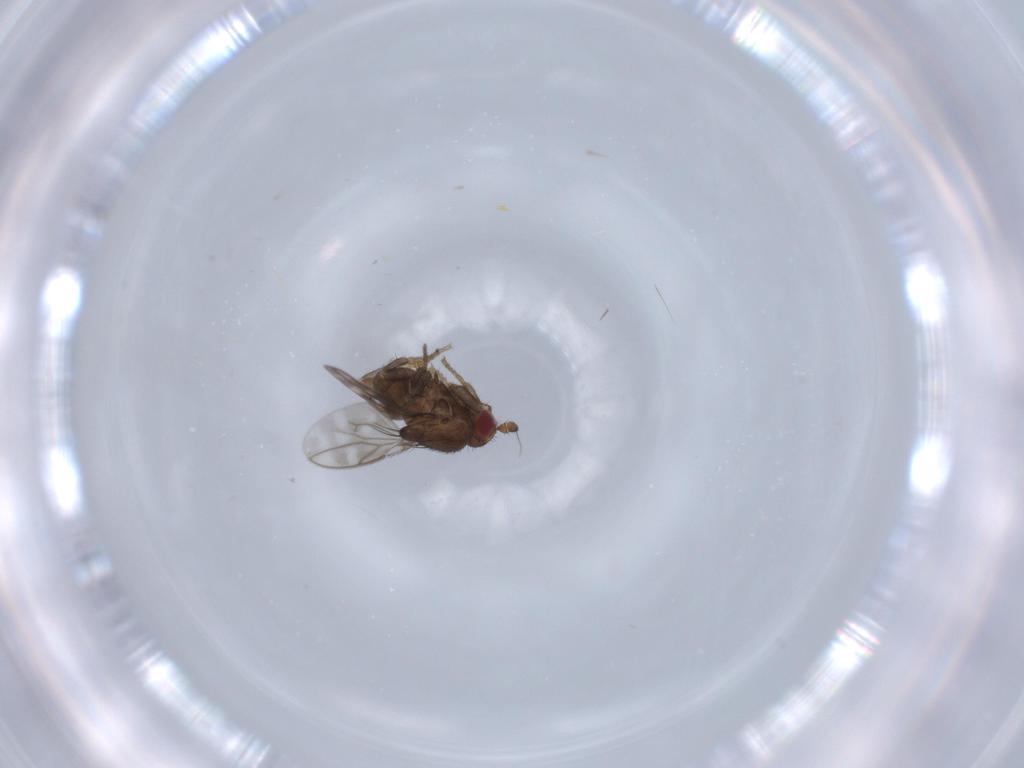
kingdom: Animalia
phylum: Arthropoda
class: Insecta
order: Diptera
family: Sphaeroceridae
